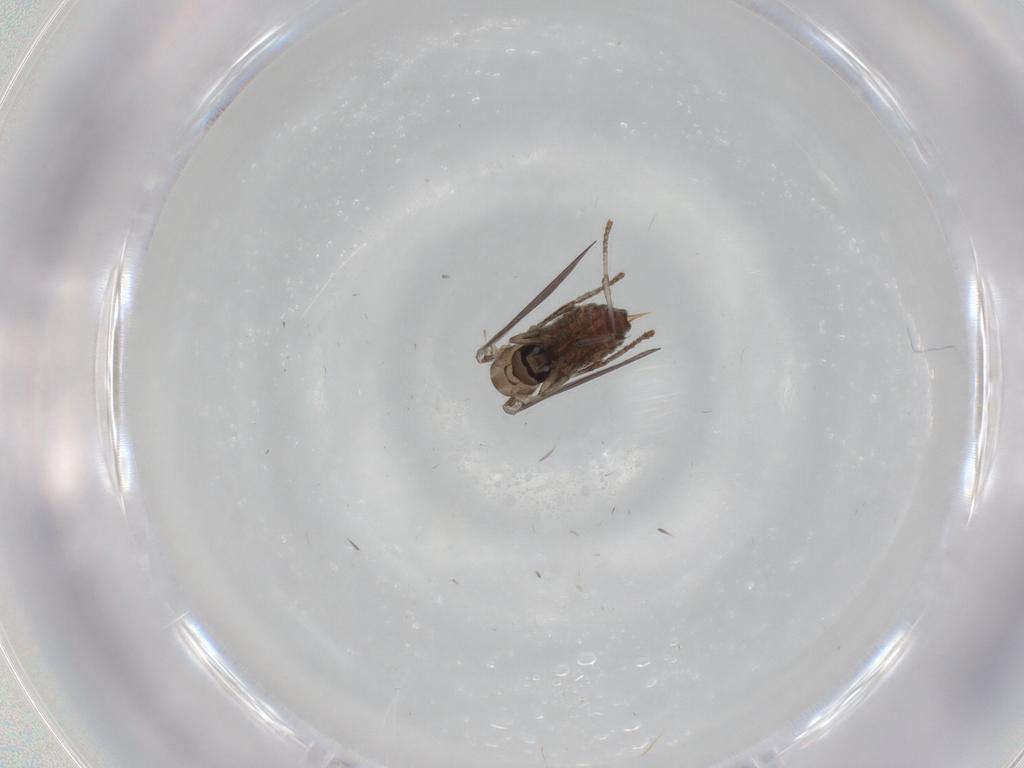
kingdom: Animalia
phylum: Arthropoda
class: Insecta
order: Diptera
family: Psychodidae
